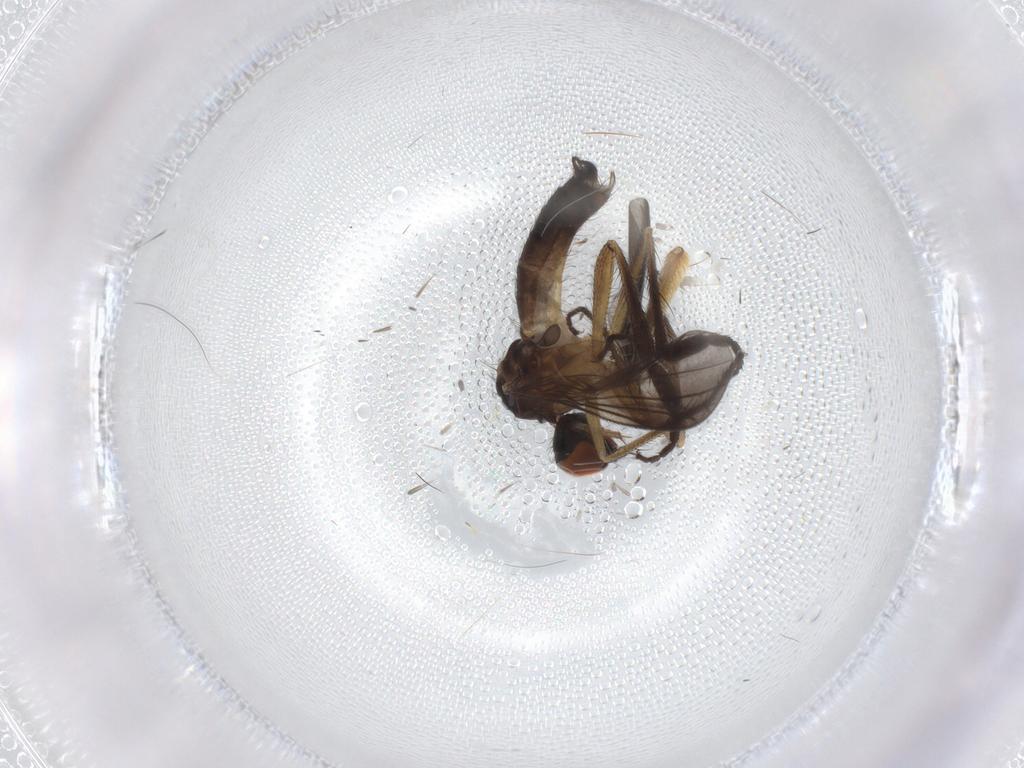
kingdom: Animalia
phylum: Arthropoda
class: Insecta
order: Diptera
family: Empididae
